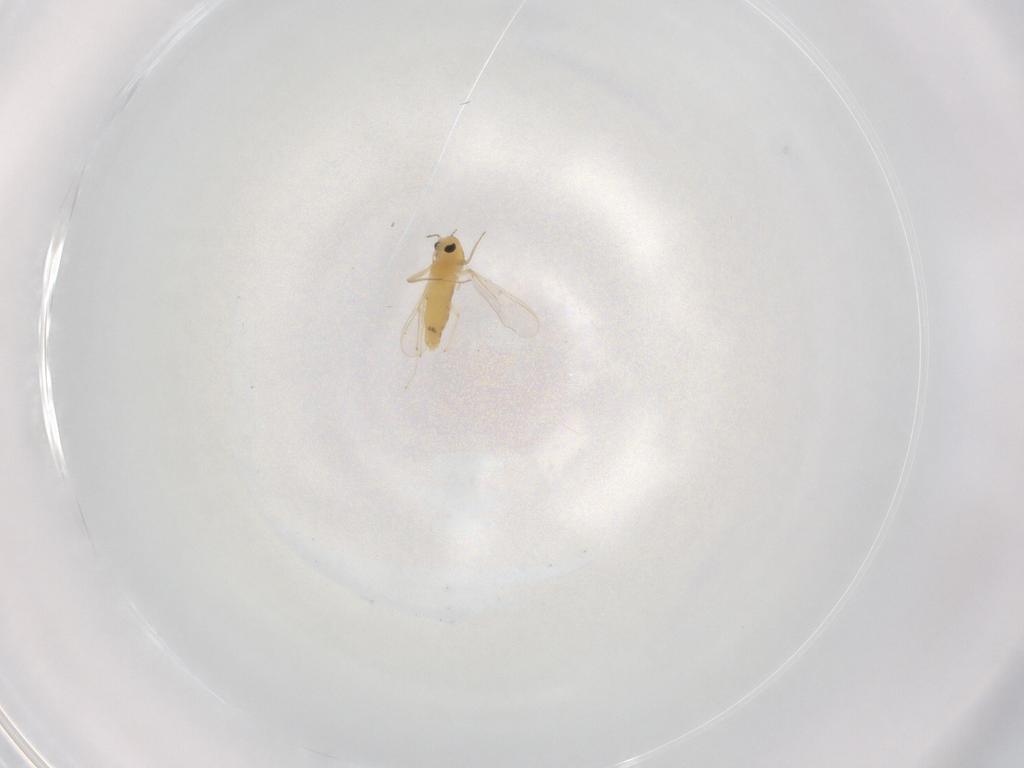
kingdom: Animalia
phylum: Arthropoda
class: Insecta
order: Diptera
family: Chironomidae
